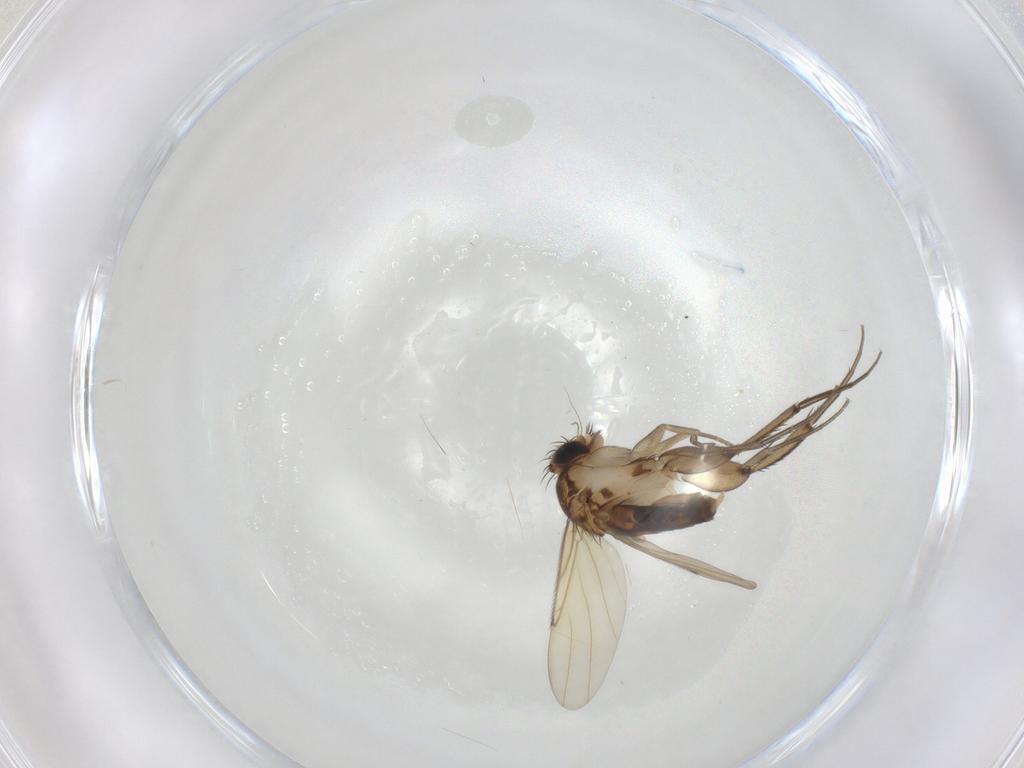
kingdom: Animalia
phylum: Arthropoda
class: Insecta
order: Diptera
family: Phoridae
